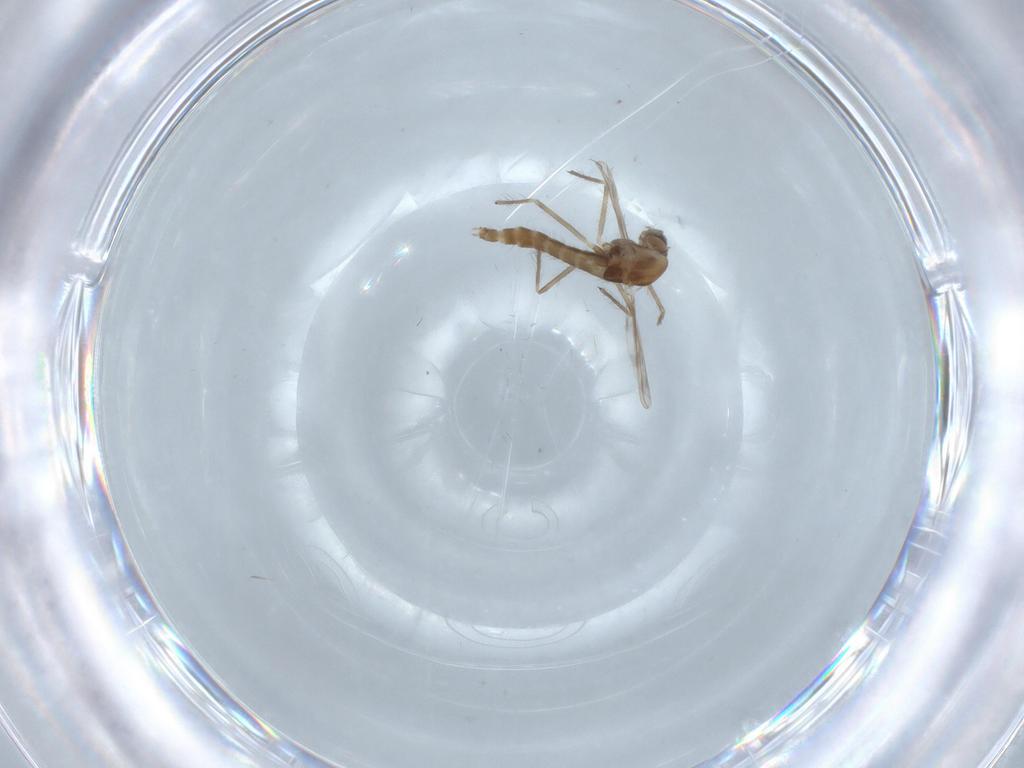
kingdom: Animalia
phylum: Arthropoda
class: Insecta
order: Diptera
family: Chironomidae
